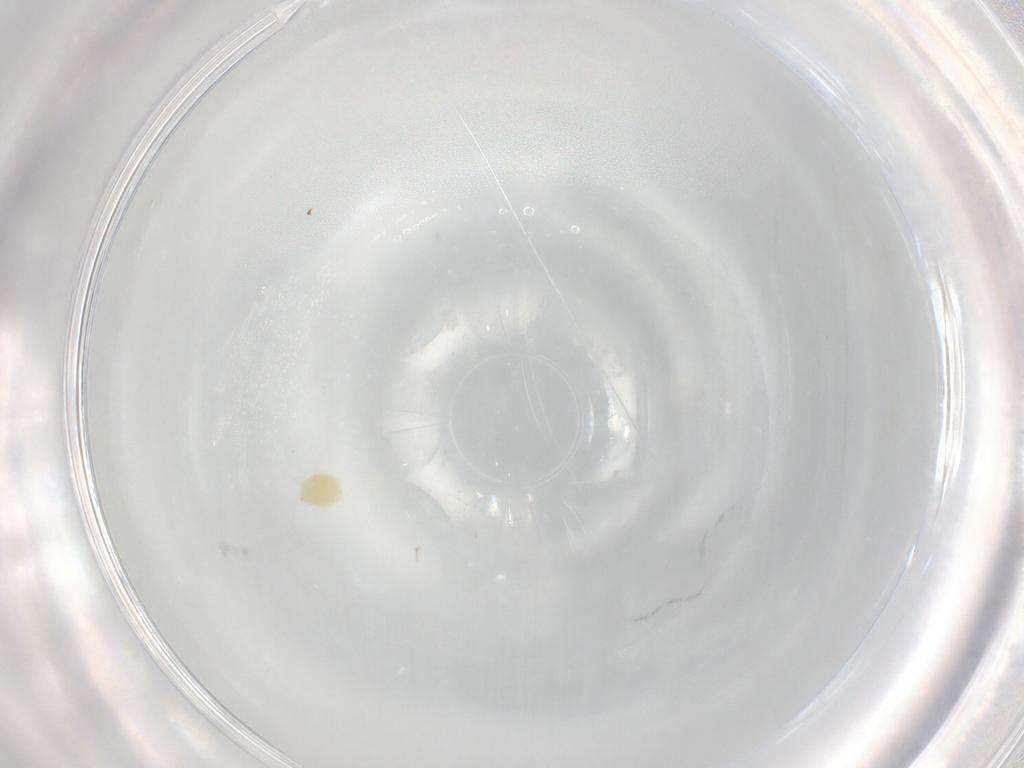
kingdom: Animalia
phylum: Arthropoda
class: Arachnida
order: Trombidiformes
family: Tetranychidae
